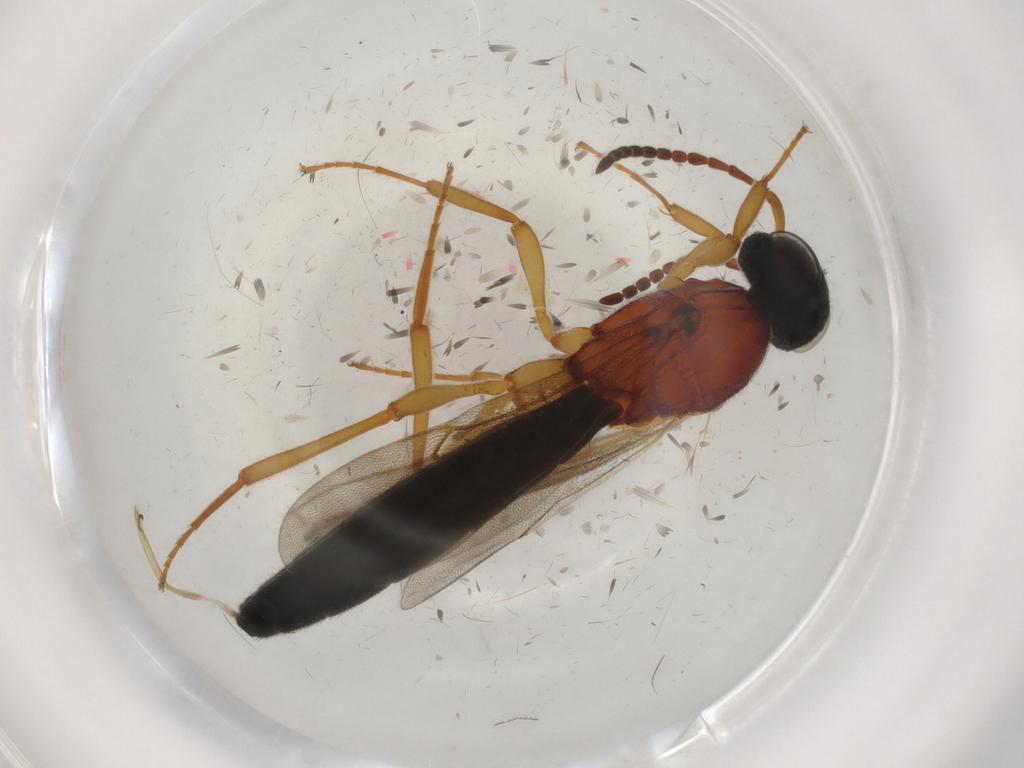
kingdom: Animalia
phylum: Arthropoda
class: Insecta
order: Hymenoptera
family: Scelionidae
